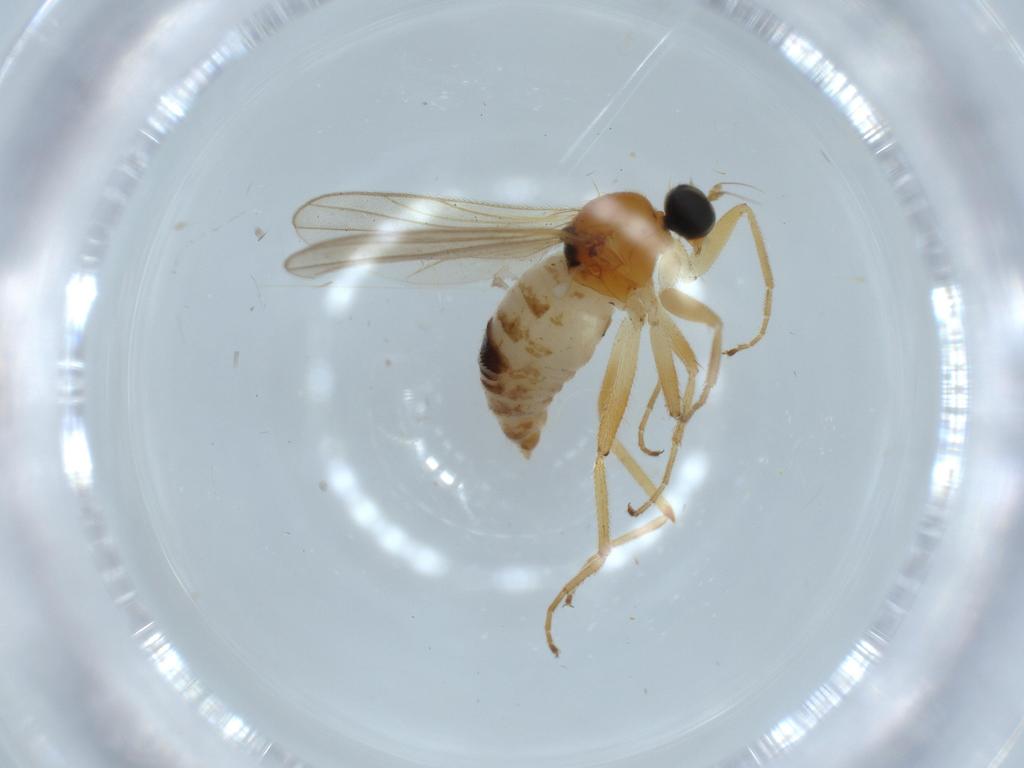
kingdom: Animalia
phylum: Arthropoda
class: Insecta
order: Diptera
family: Hybotidae
